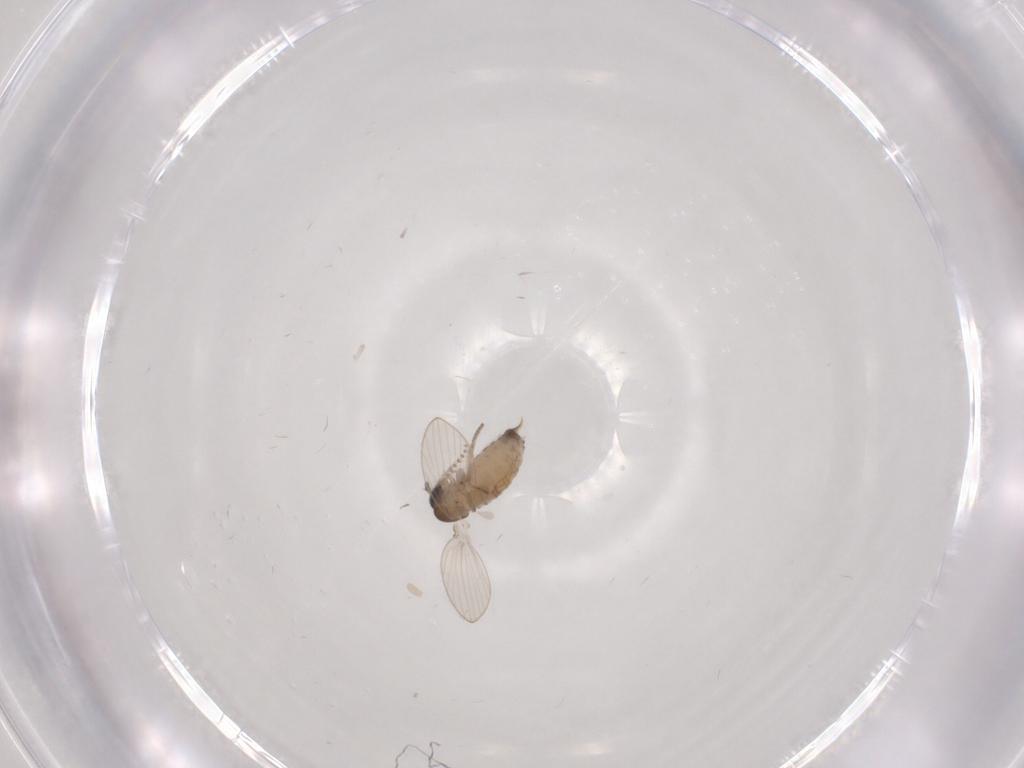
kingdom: Animalia
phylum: Arthropoda
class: Insecta
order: Diptera
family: Psychodidae
